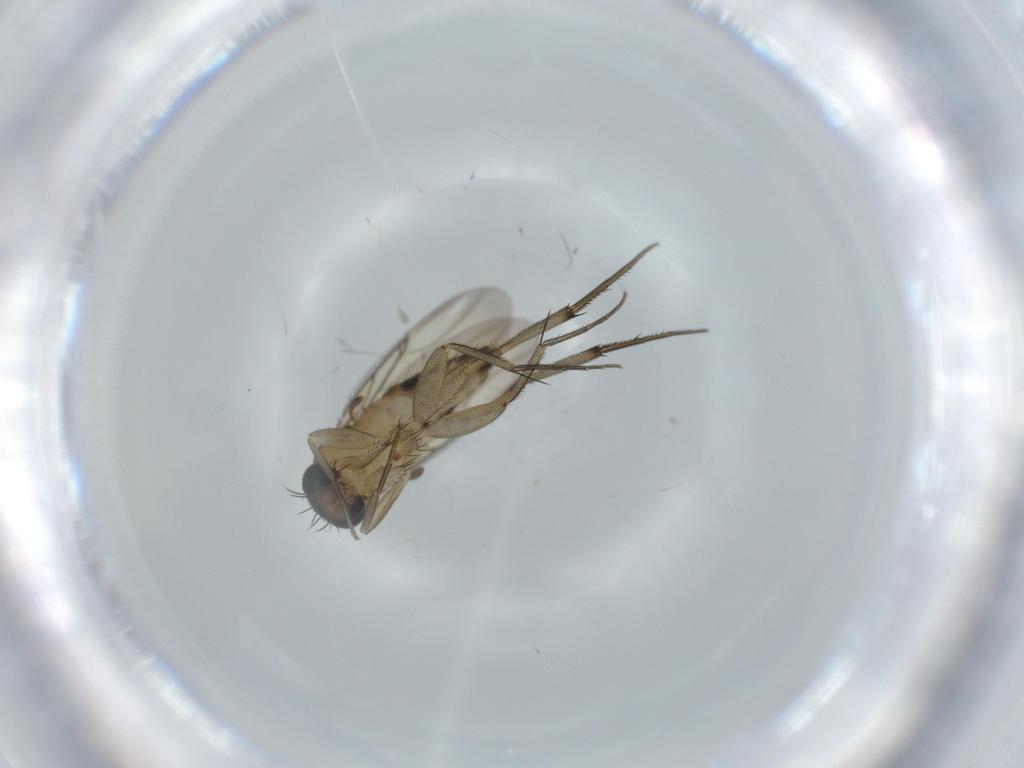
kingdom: Animalia
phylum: Arthropoda
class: Insecta
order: Diptera
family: Phoridae
